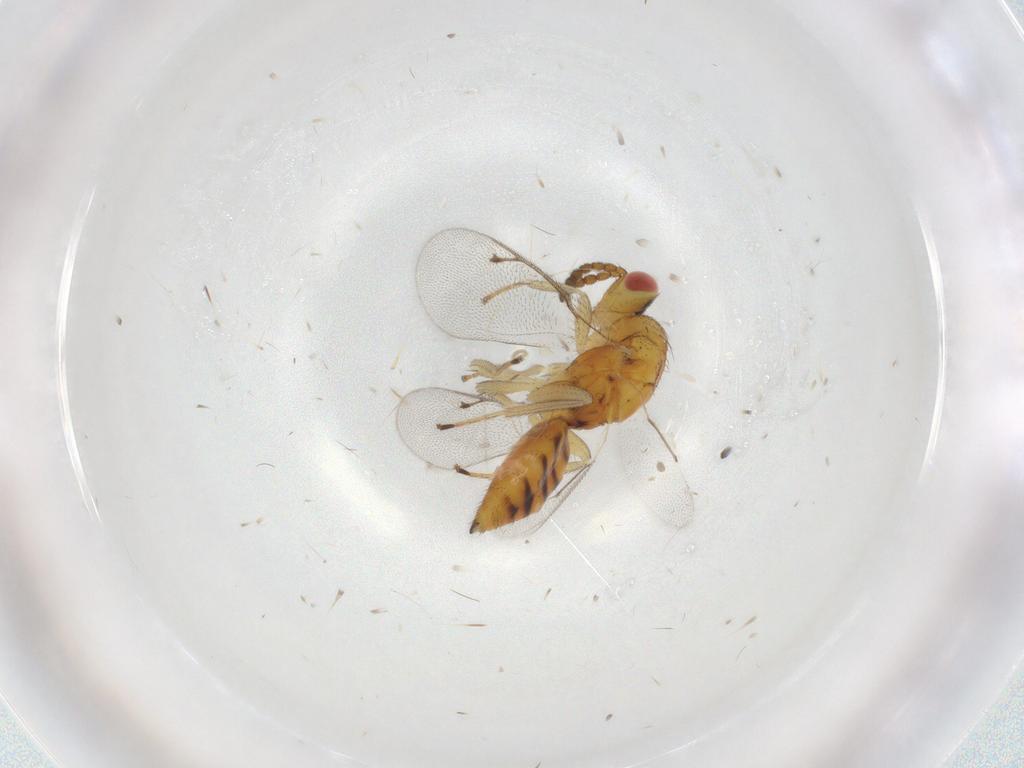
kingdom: Animalia
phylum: Arthropoda
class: Insecta
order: Hymenoptera
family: Eulophidae
